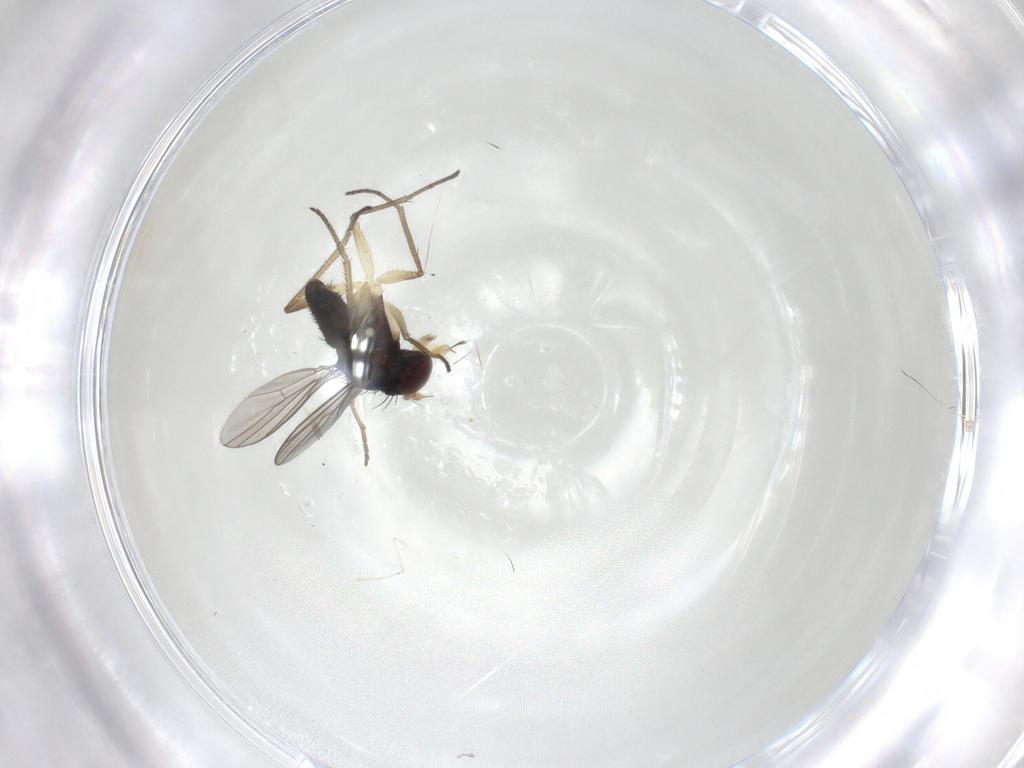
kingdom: Animalia
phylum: Arthropoda
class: Insecta
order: Diptera
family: Dolichopodidae
